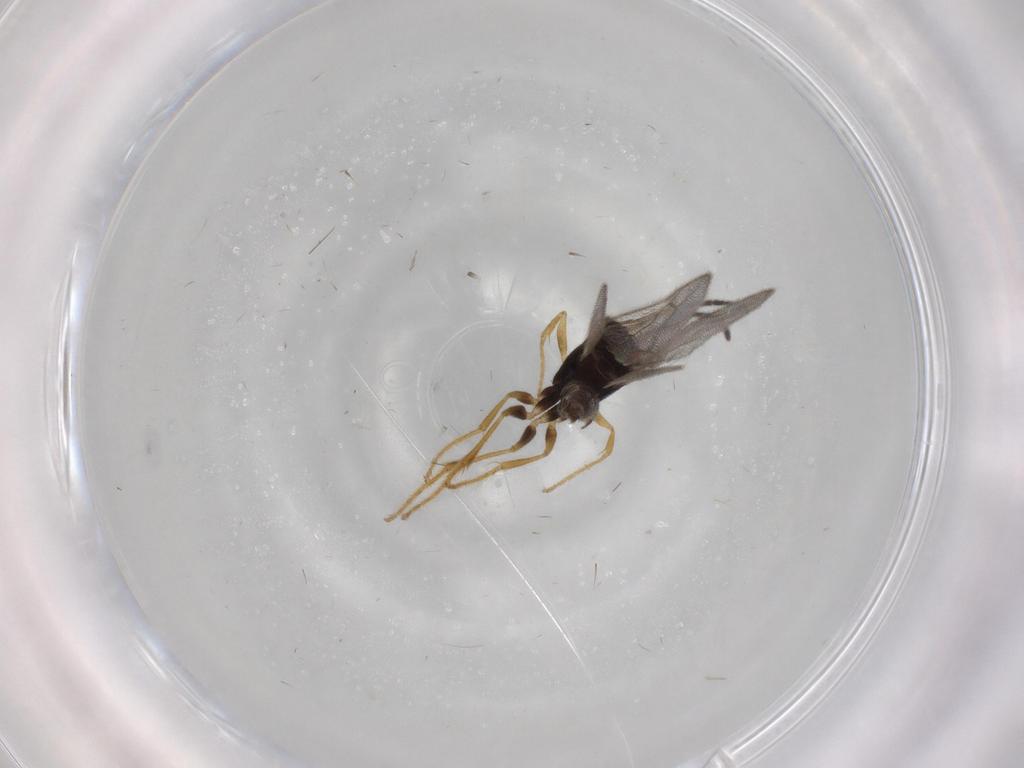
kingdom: Animalia
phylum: Arthropoda
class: Insecta
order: Hymenoptera
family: Dryinidae
